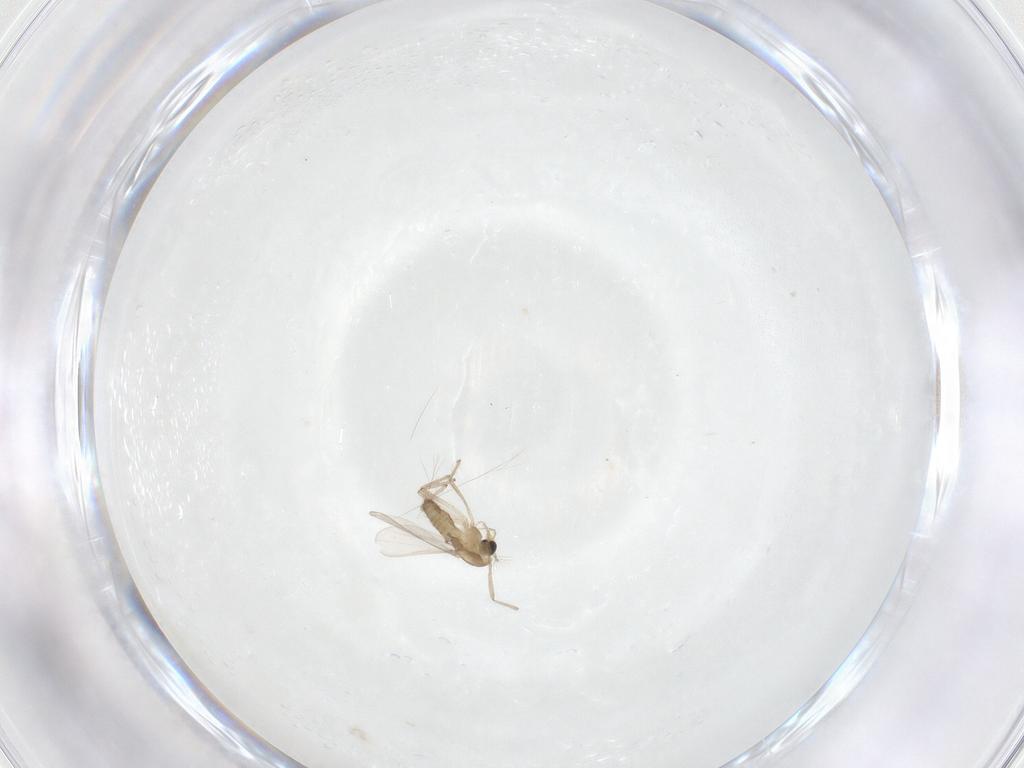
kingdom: Animalia
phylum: Arthropoda
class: Insecta
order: Diptera
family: Chironomidae
